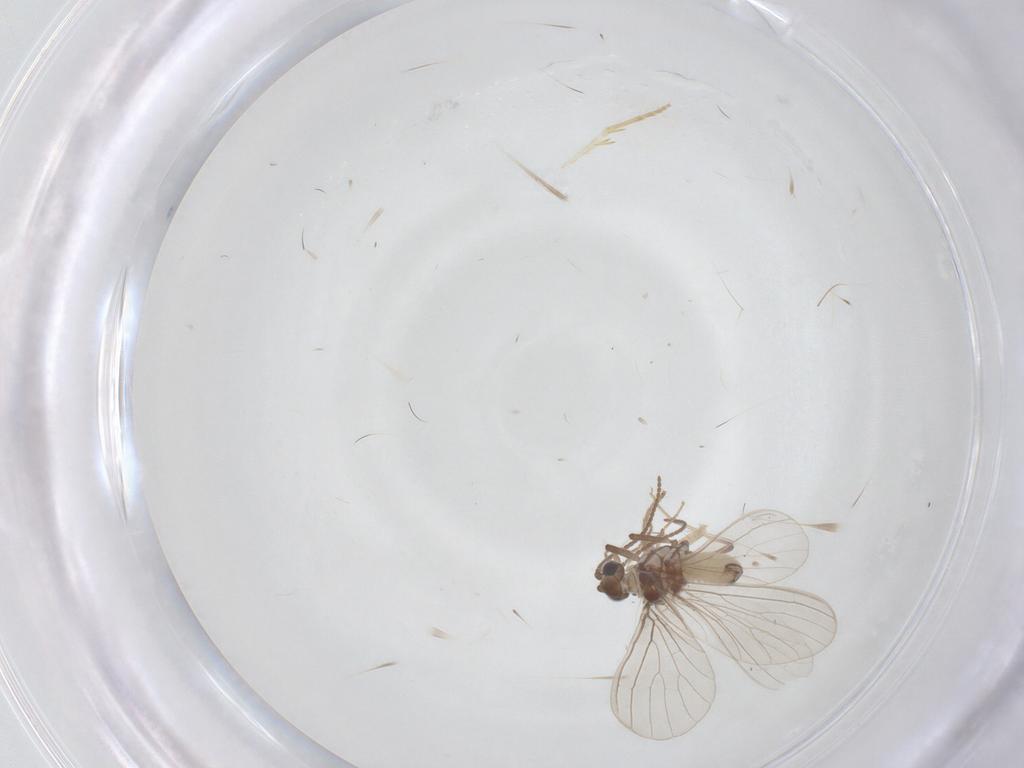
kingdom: Animalia
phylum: Arthropoda
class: Insecta
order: Neuroptera
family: Coniopterygidae
